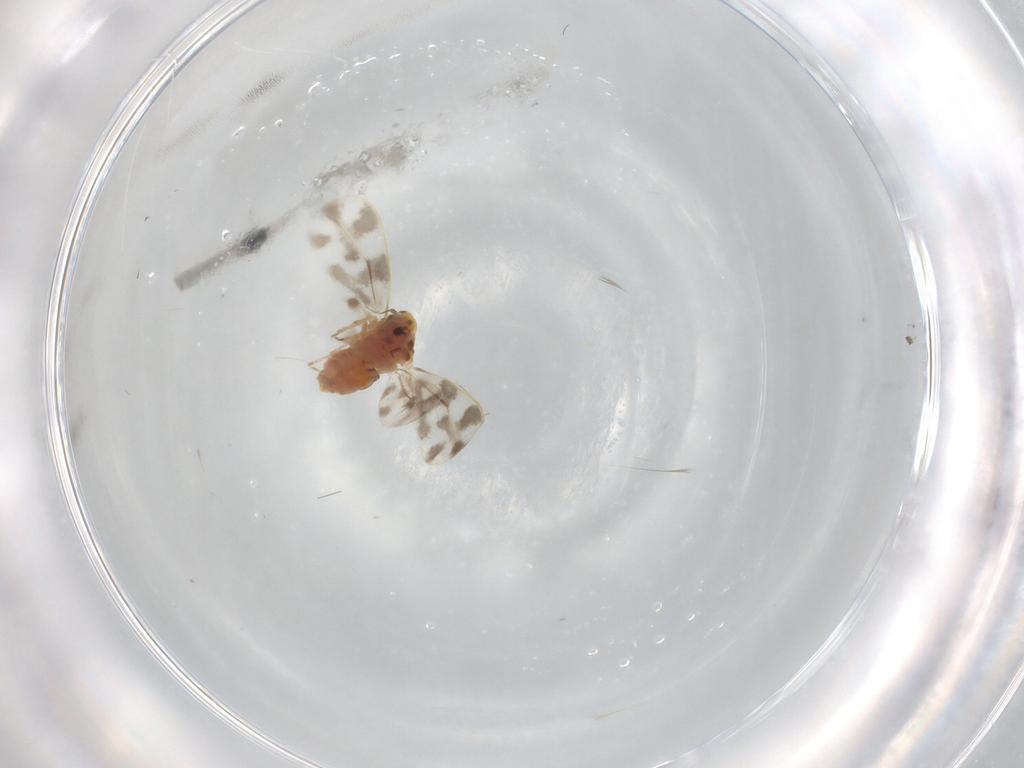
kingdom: Animalia
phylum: Arthropoda
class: Insecta
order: Hemiptera
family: Aleyrodidae
